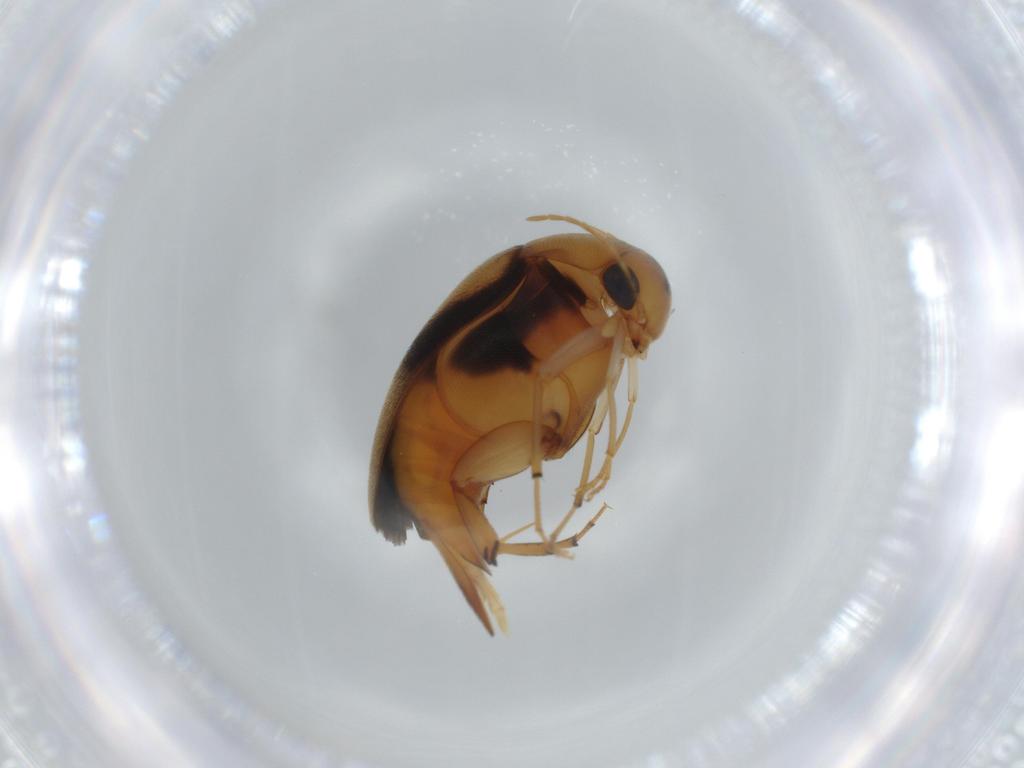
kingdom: Animalia
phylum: Arthropoda
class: Insecta
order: Coleoptera
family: Mordellidae
